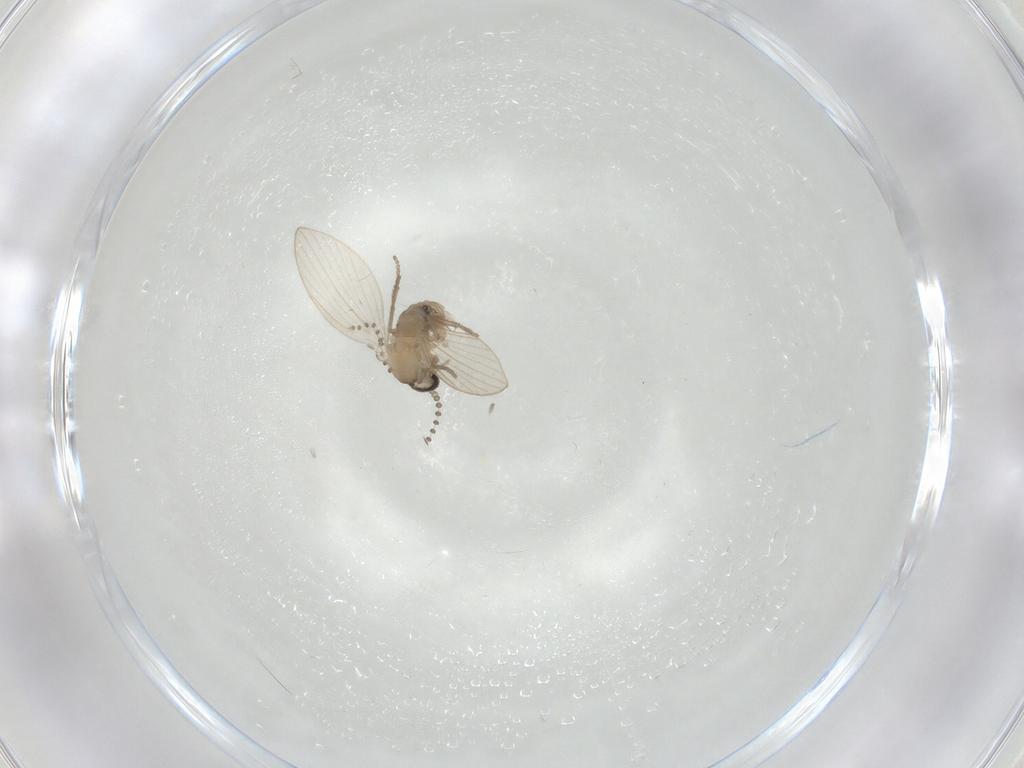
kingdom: Animalia
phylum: Arthropoda
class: Insecta
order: Diptera
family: Psychodidae
